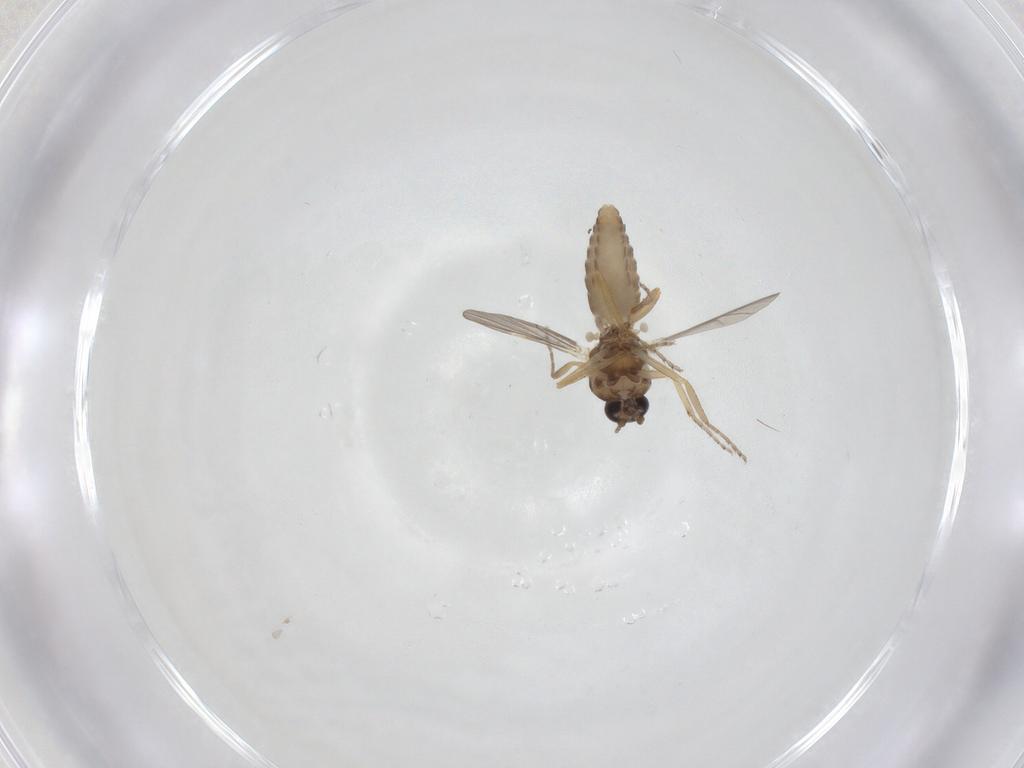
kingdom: Animalia
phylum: Arthropoda
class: Insecta
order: Diptera
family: Ceratopogonidae
